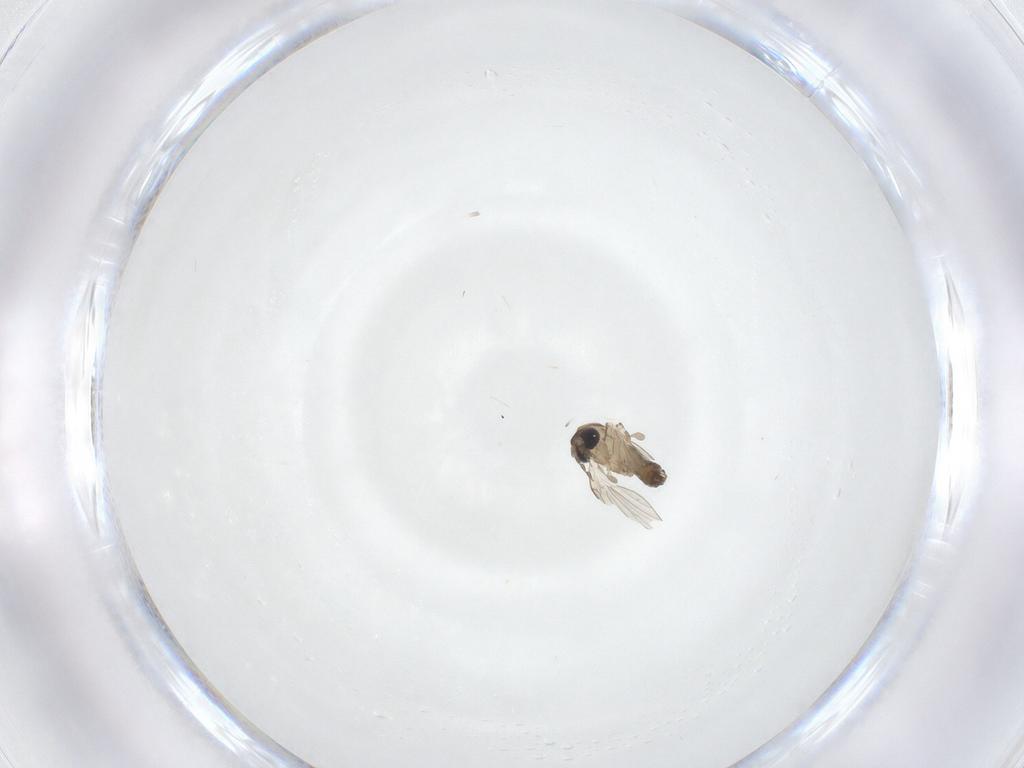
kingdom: Animalia
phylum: Arthropoda
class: Insecta
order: Diptera
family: Psychodidae
